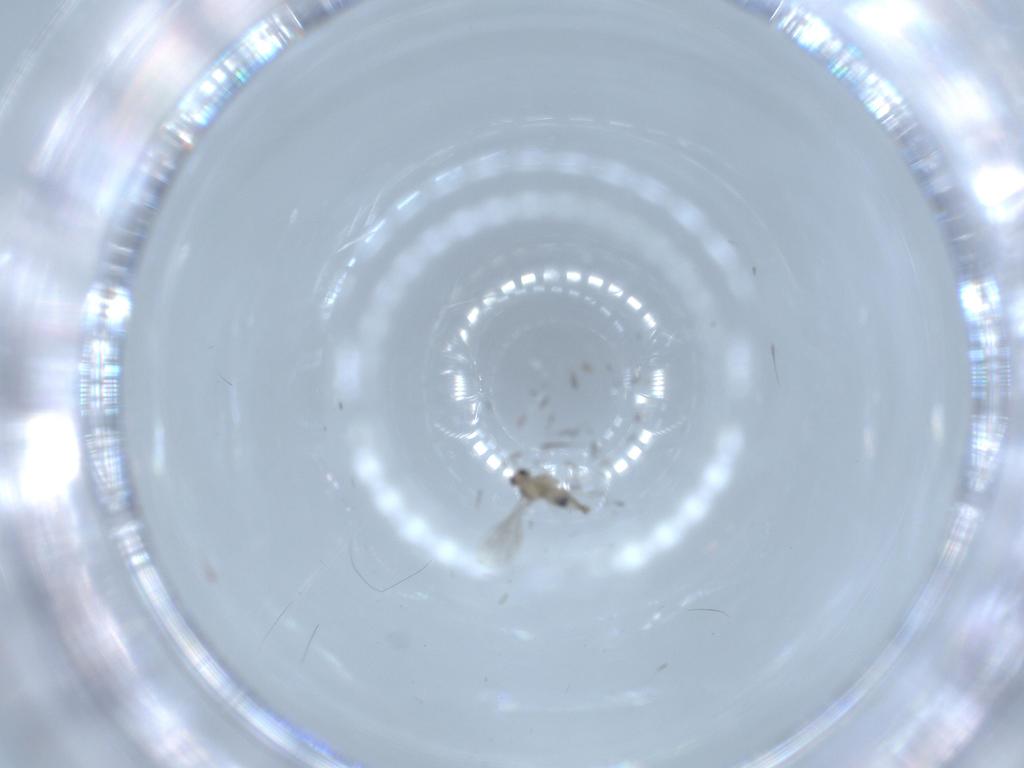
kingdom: Animalia
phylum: Arthropoda
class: Insecta
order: Diptera
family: Cecidomyiidae
